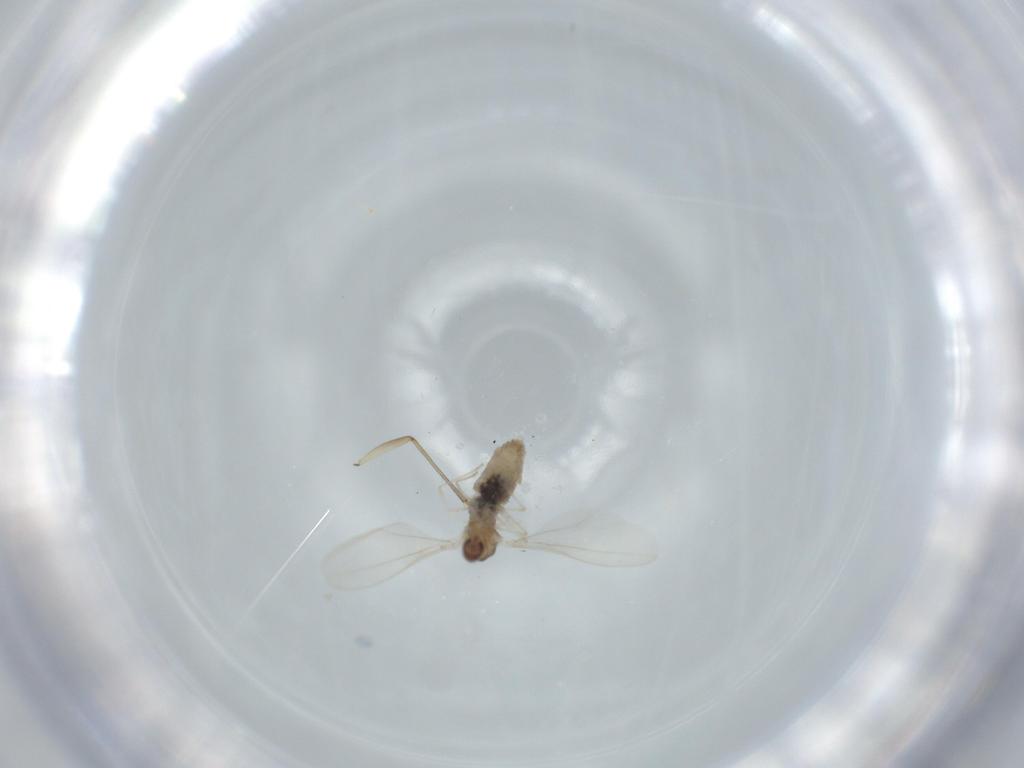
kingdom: Animalia
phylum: Arthropoda
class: Insecta
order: Diptera
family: Cecidomyiidae
